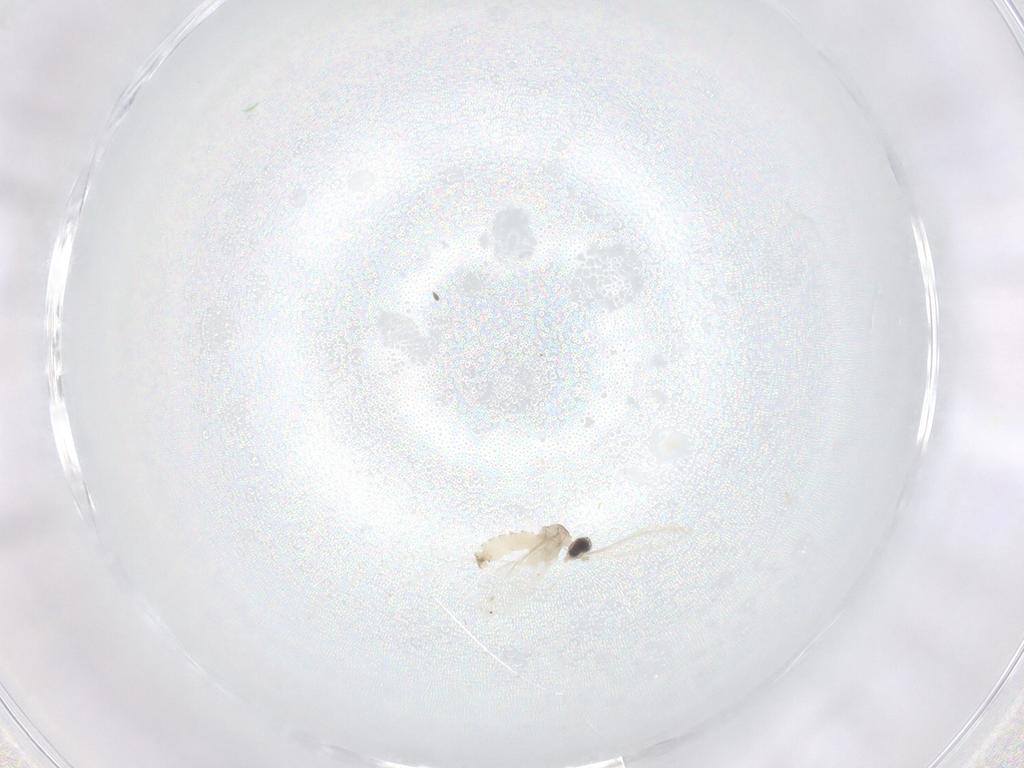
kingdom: Animalia
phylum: Arthropoda
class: Insecta
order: Diptera
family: Cecidomyiidae
